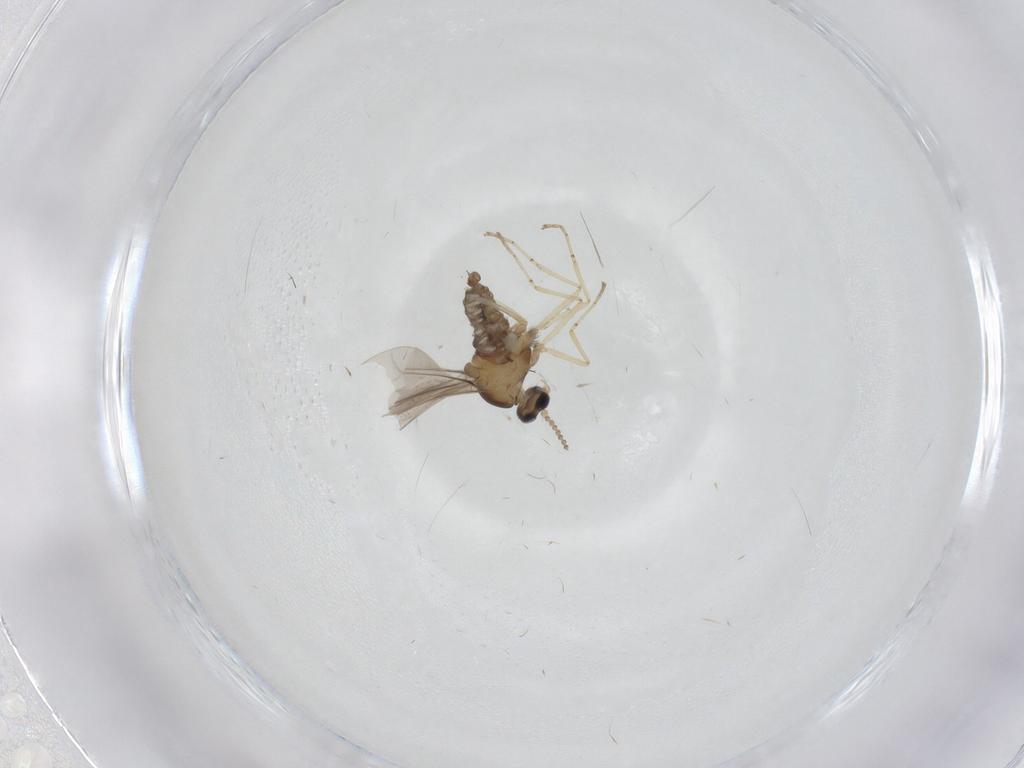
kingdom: Animalia
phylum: Arthropoda
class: Insecta
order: Diptera
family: Cecidomyiidae
